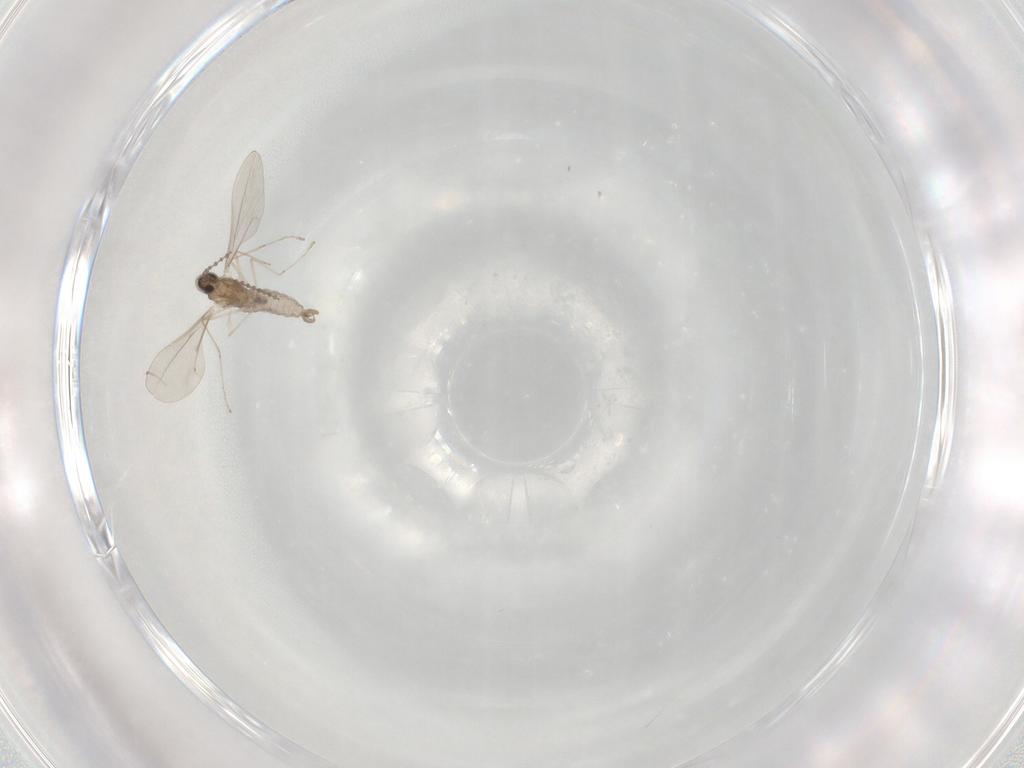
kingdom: Animalia
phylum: Arthropoda
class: Insecta
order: Diptera
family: Cecidomyiidae
